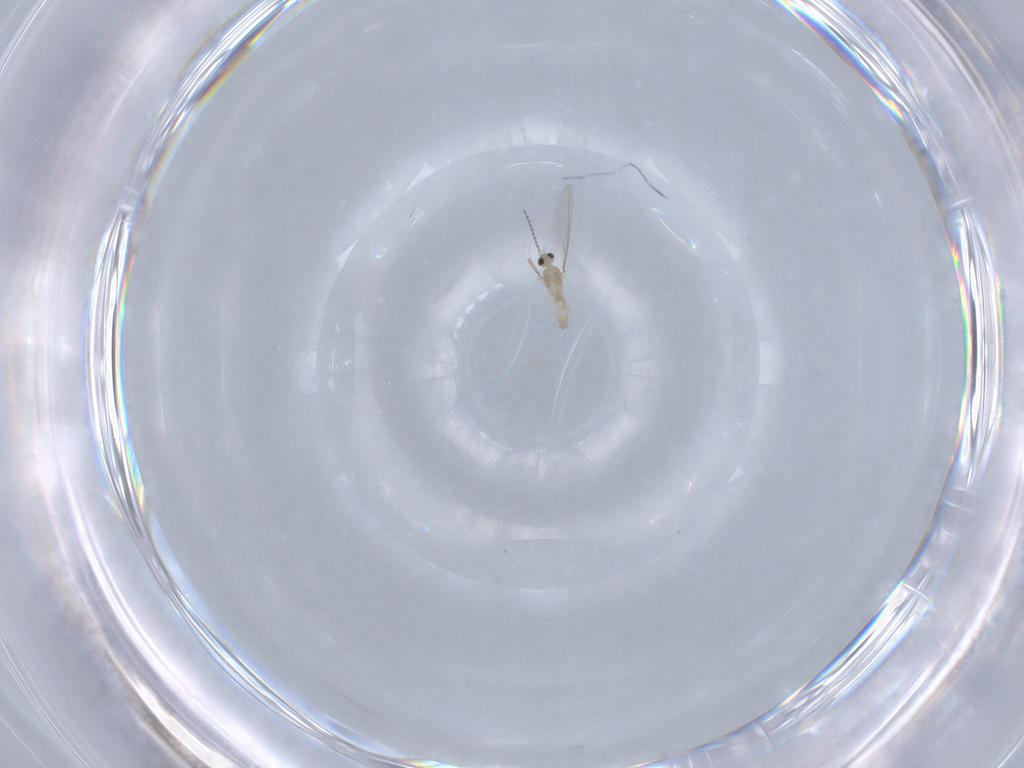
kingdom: Animalia
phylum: Arthropoda
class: Insecta
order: Diptera
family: Cecidomyiidae
